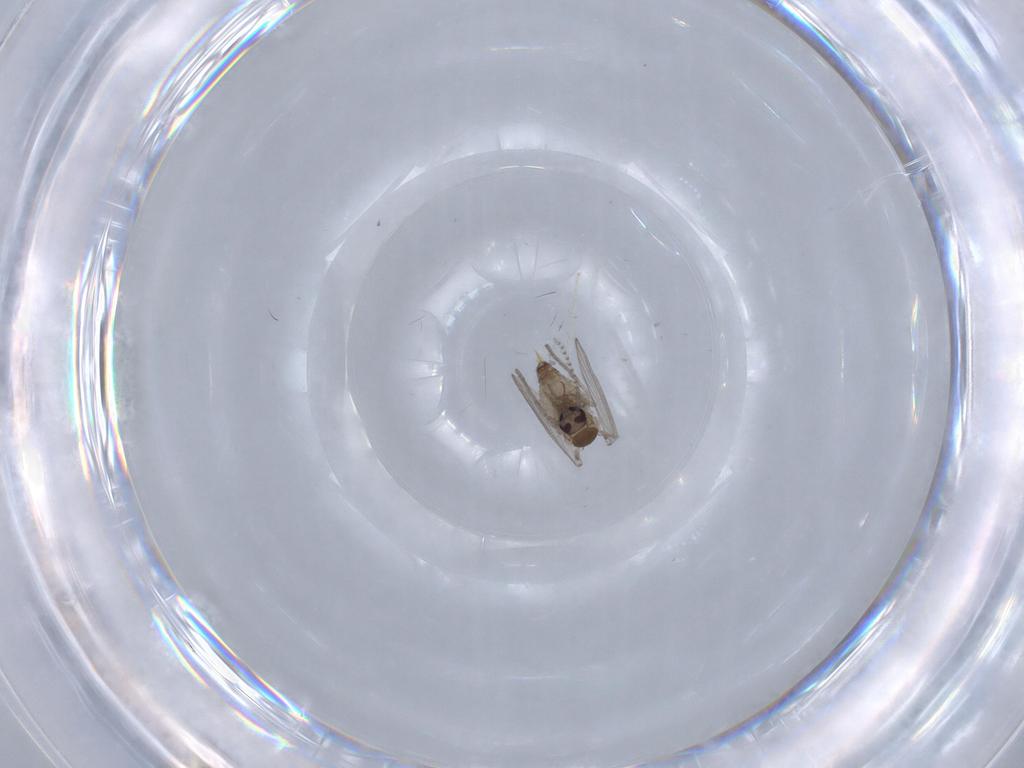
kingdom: Animalia
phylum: Arthropoda
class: Insecta
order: Diptera
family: Psychodidae
